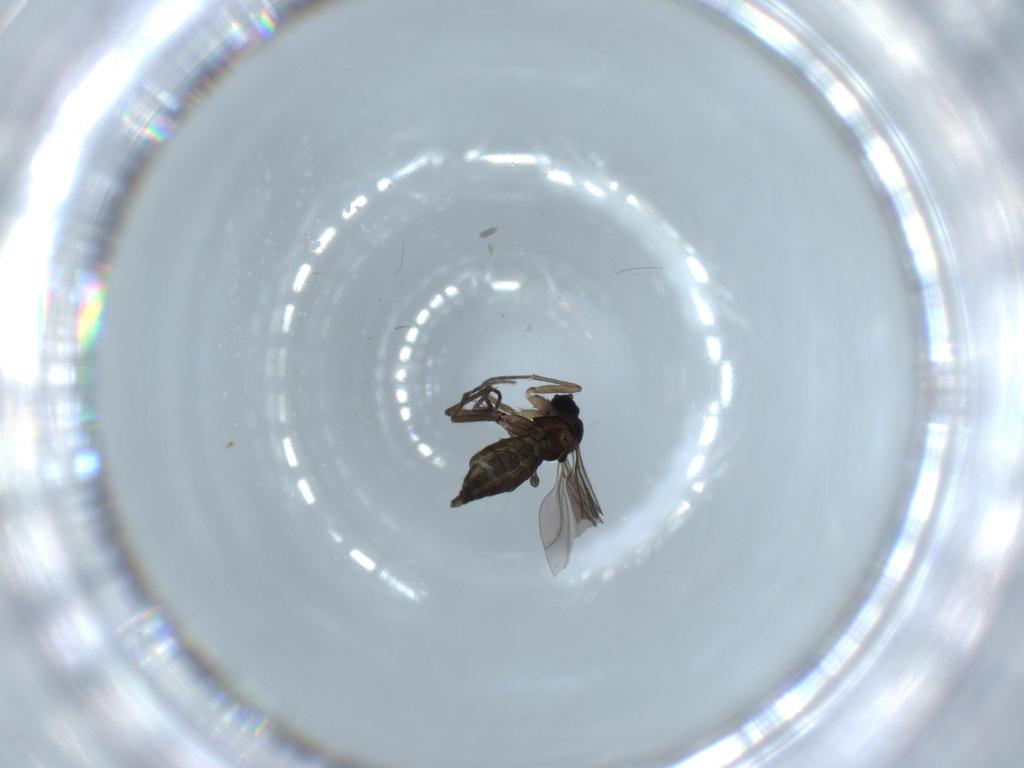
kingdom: Animalia
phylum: Arthropoda
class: Insecta
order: Diptera
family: Sciaridae
